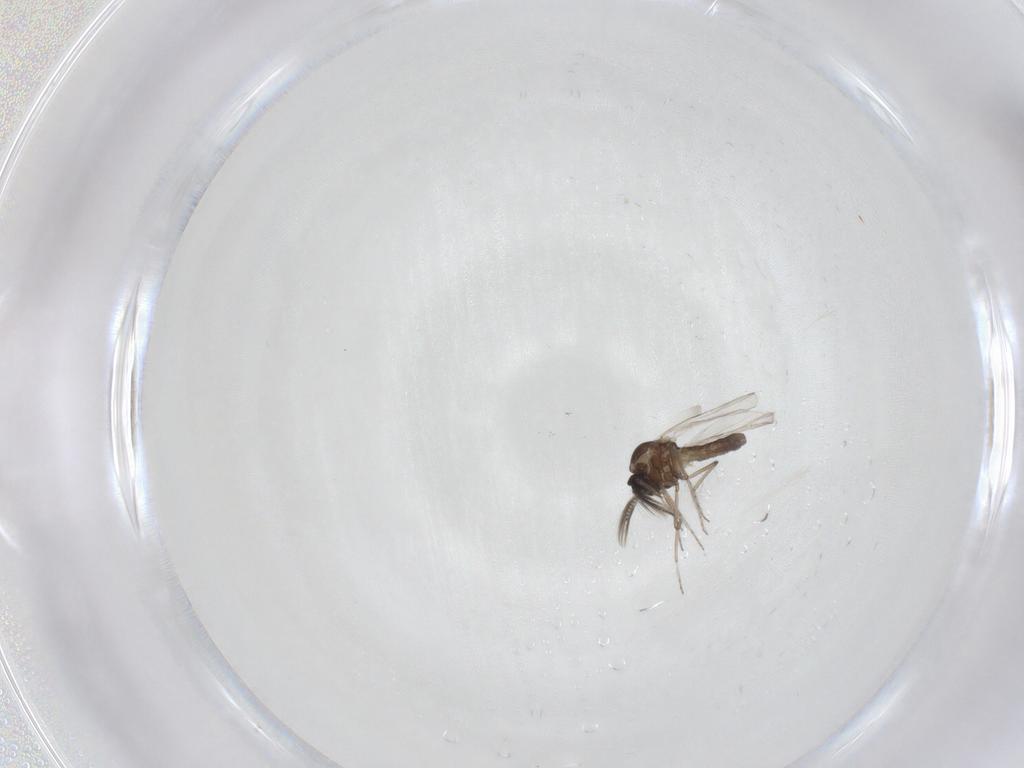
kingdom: Animalia
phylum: Arthropoda
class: Insecta
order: Diptera
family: Ceratopogonidae
